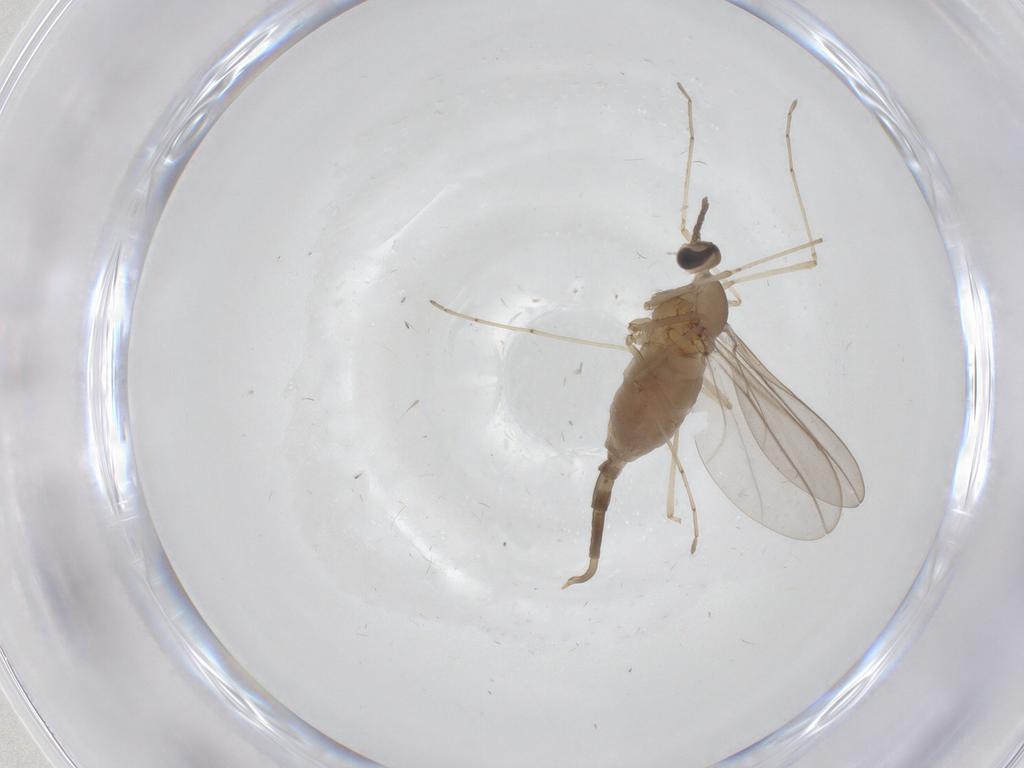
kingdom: Animalia
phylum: Arthropoda
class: Insecta
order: Diptera
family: Cecidomyiidae
